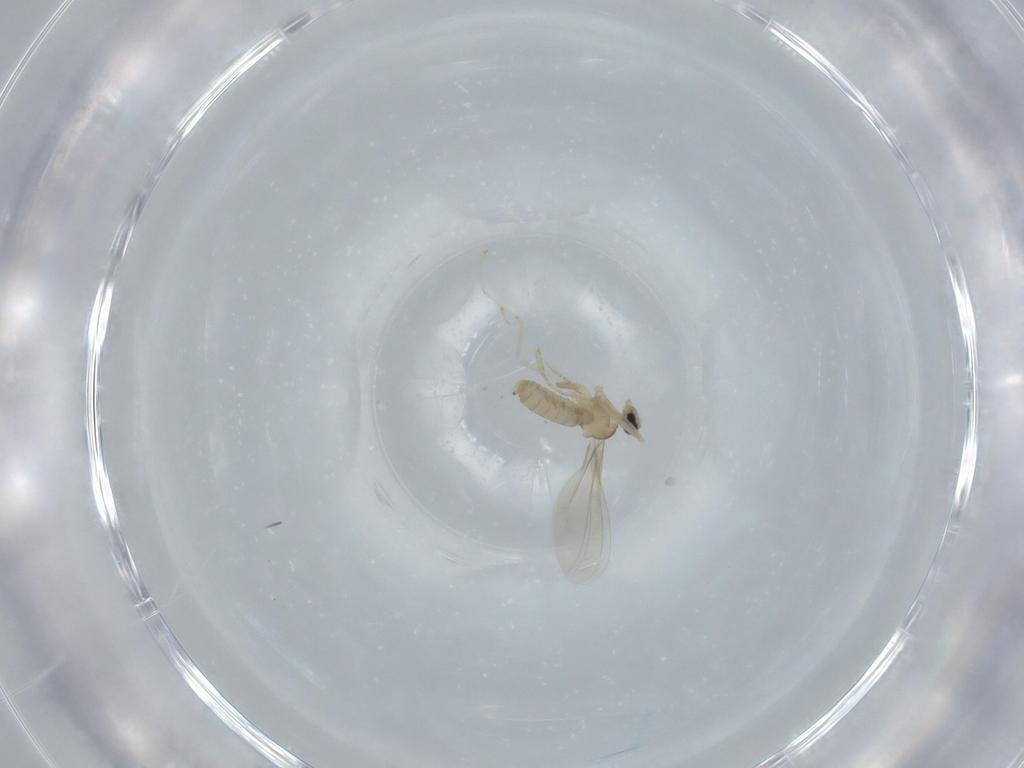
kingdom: Animalia
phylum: Arthropoda
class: Insecta
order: Diptera
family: Cecidomyiidae
